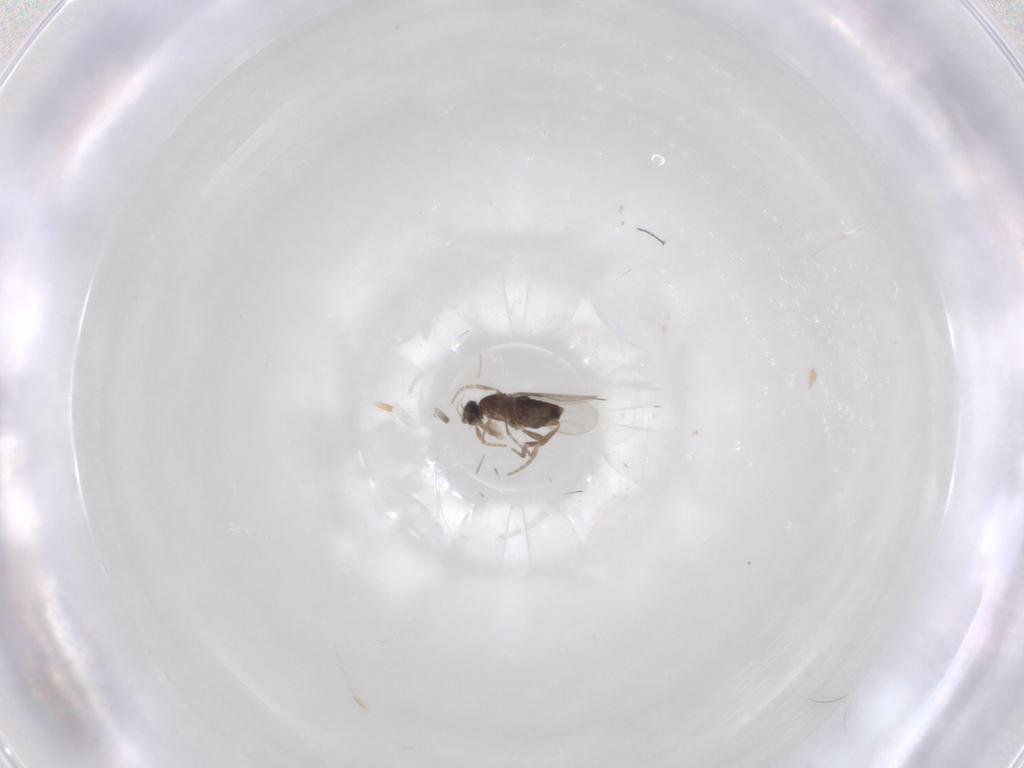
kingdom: Animalia
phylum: Arthropoda
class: Insecta
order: Diptera
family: Phoridae
